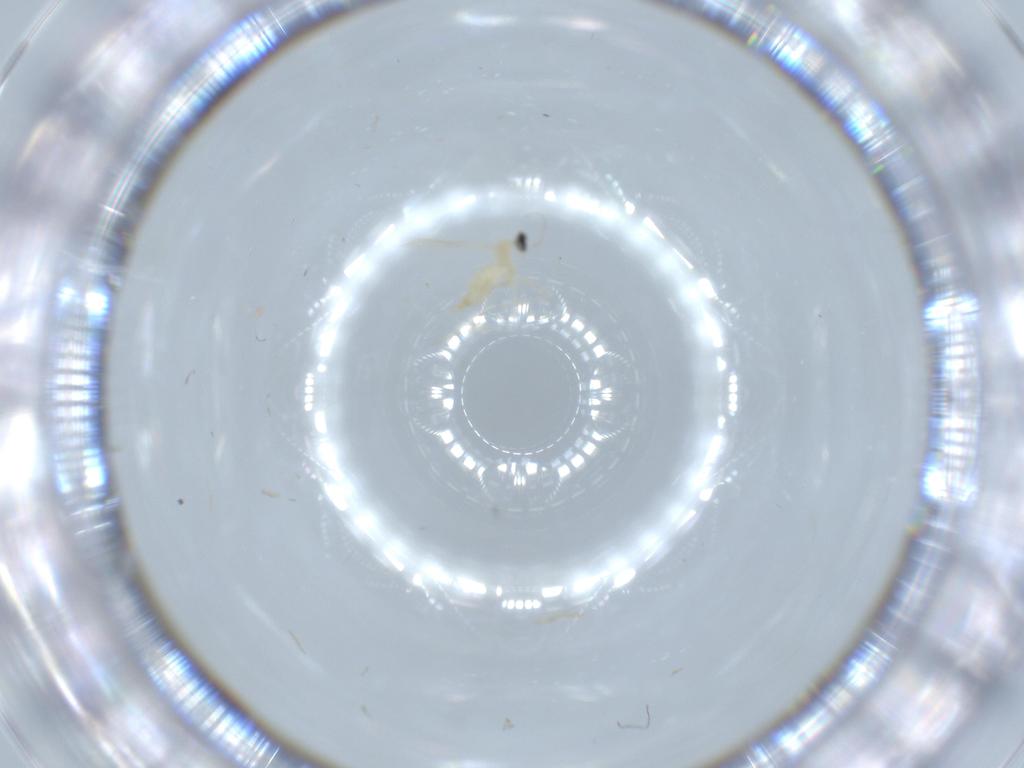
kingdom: Animalia
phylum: Arthropoda
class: Insecta
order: Diptera
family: Cecidomyiidae
